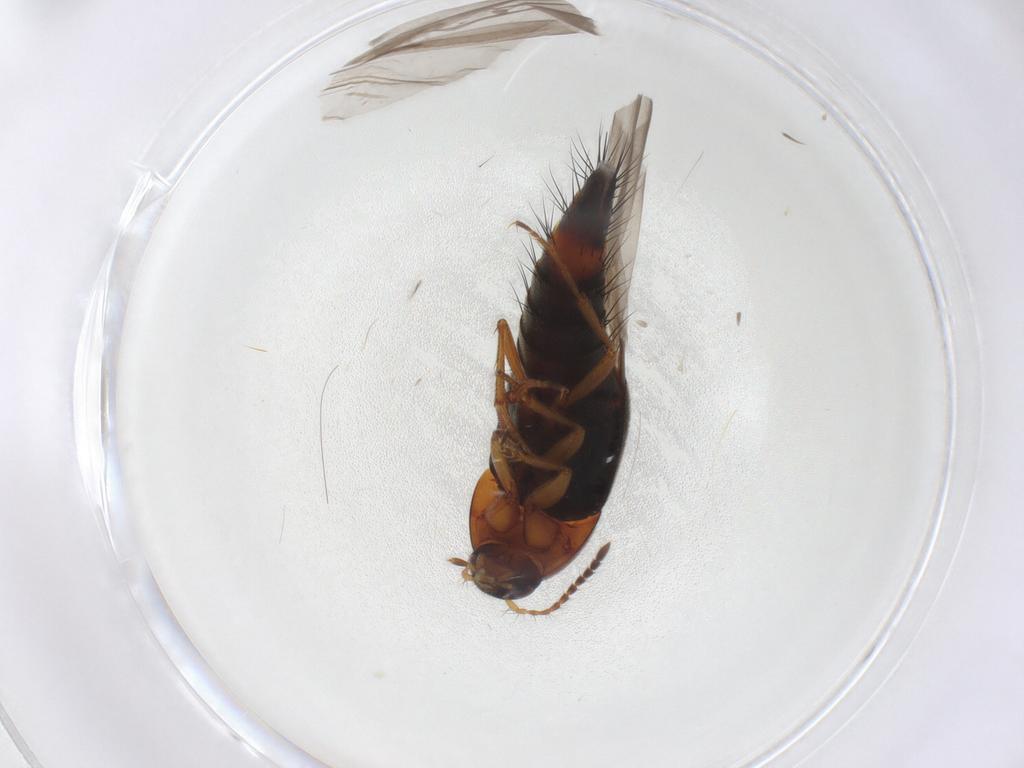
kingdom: Animalia
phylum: Arthropoda
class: Insecta
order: Coleoptera
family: Staphylinidae
